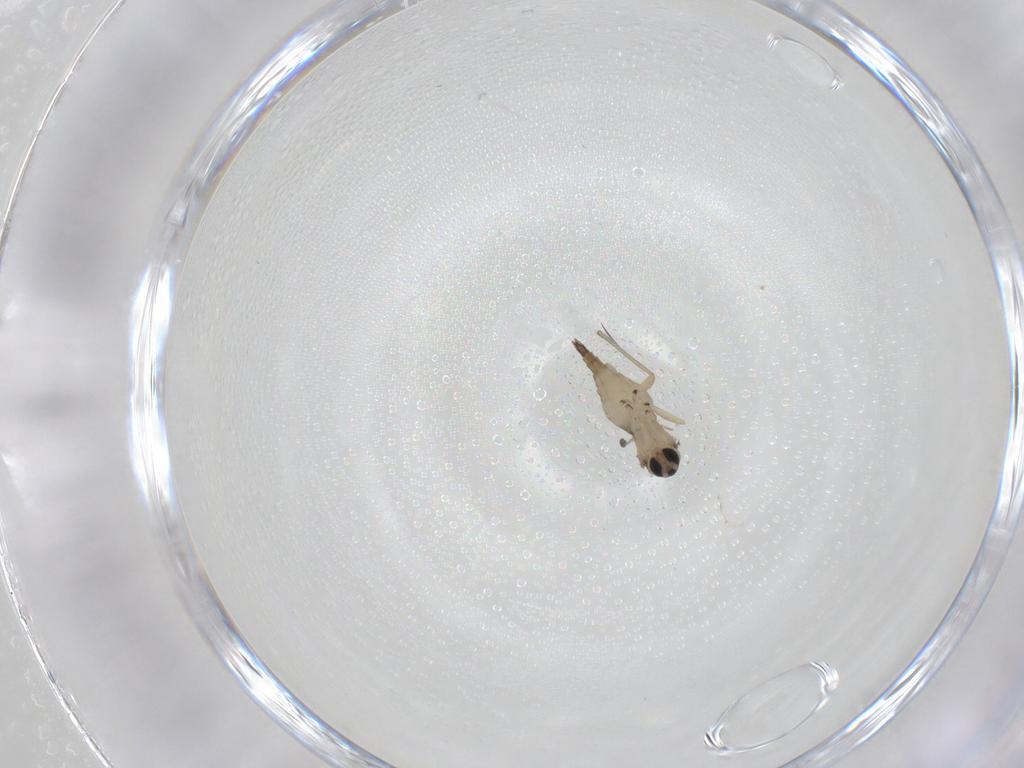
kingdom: Animalia
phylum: Arthropoda
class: Insecta
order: Diptera
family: Sciaridae
